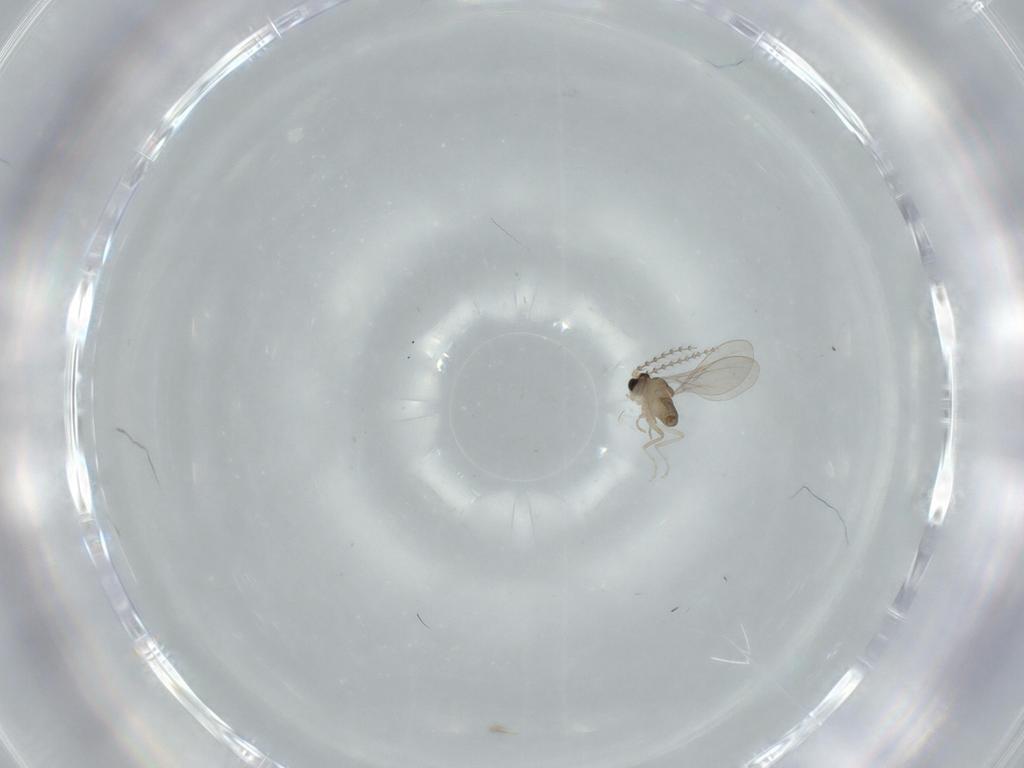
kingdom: Animalia
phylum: Arthropoda
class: Insecta
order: Diptera
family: Cecidomyiidae
